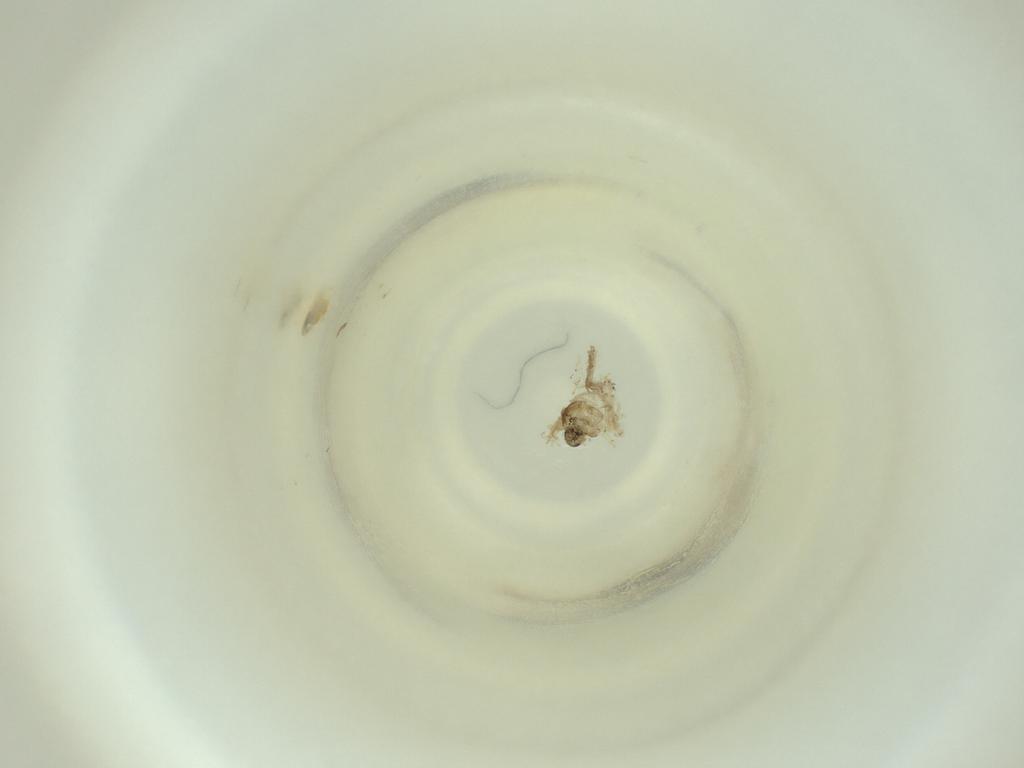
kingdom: Animalia
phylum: Arthropoda
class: Insecta
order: Diptera
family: Cecidomyiidae
